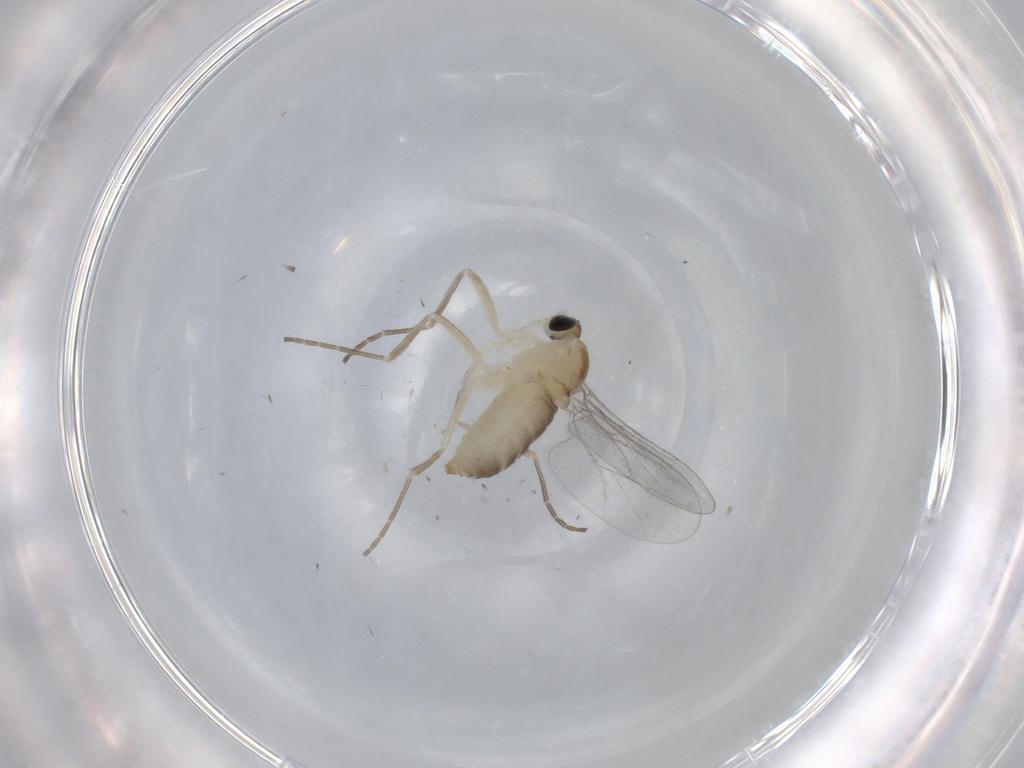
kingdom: Animalia
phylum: Arthropoda
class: Insecta
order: Diptera
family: Cecidomyiidae
